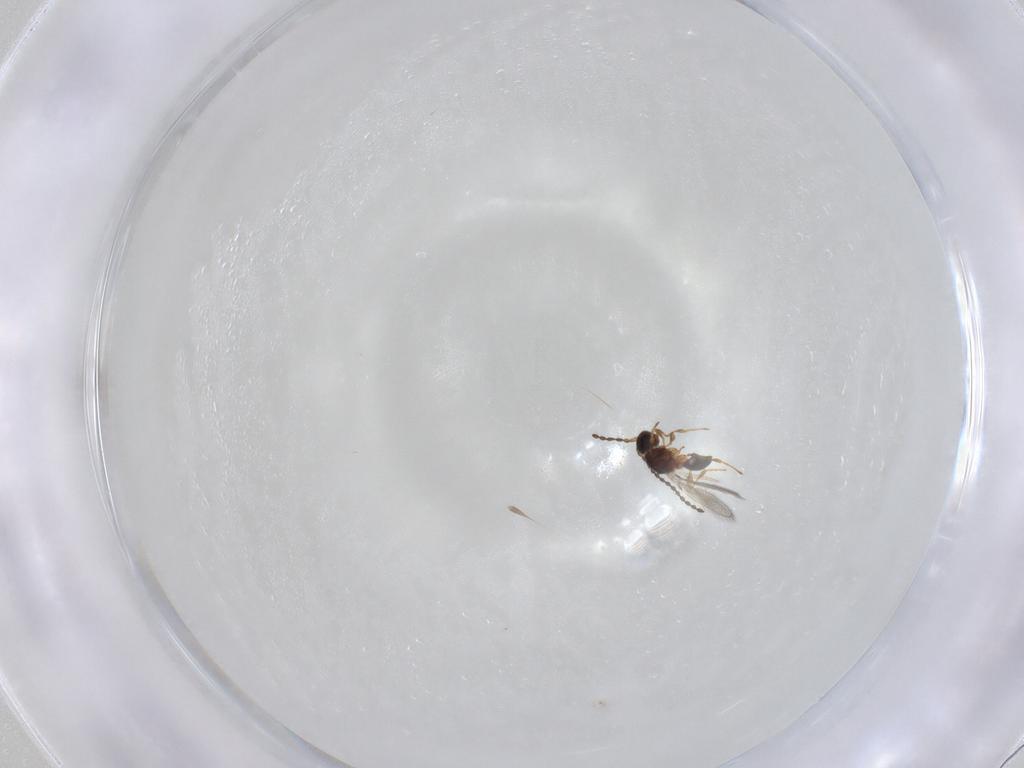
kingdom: Animalia
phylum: Arthropoda
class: Insecta
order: Hymenoptera
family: Diapriidae
